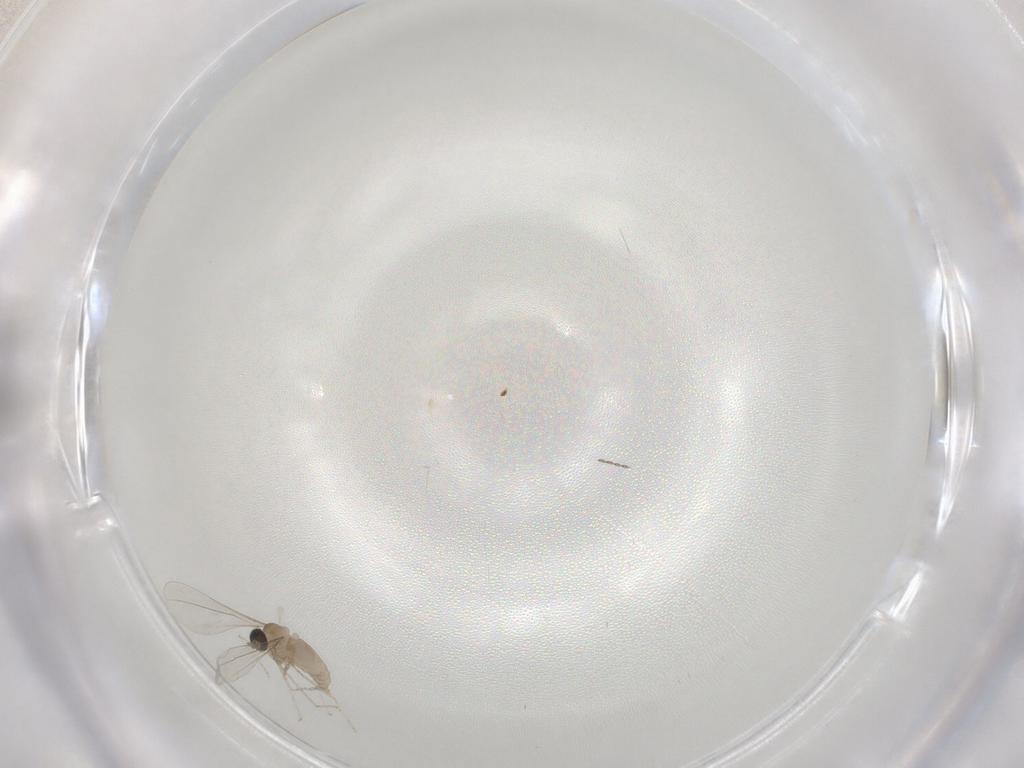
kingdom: Animalia
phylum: Arthropoda
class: Insecta
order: Diptera
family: Cecidomyiidae
